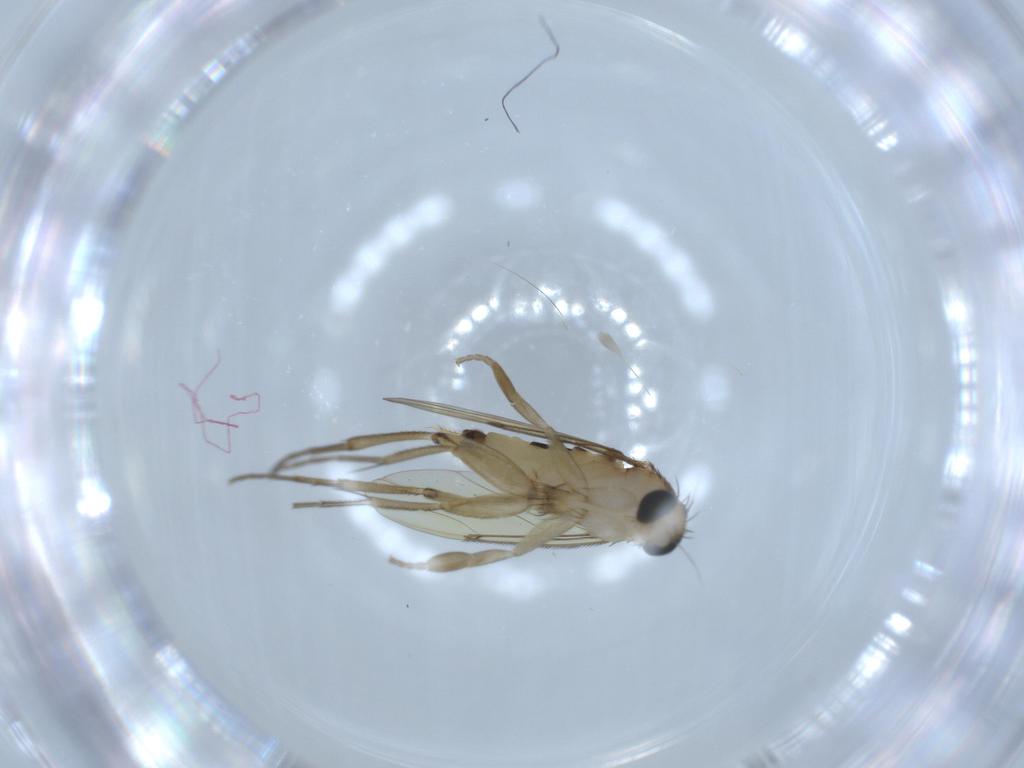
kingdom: Animalia
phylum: Arthropoda
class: Insecta
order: Diptera
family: Phoridae
